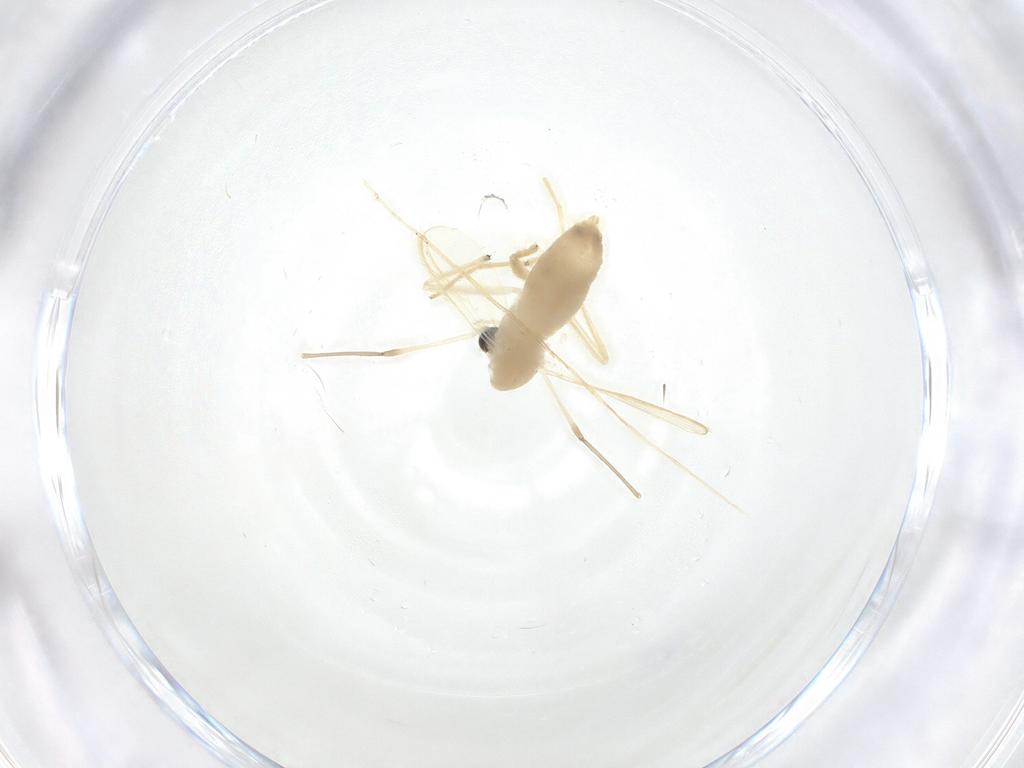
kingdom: Animalia
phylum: Arthropoda
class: Insecta
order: Diptera
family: Chironomidae
